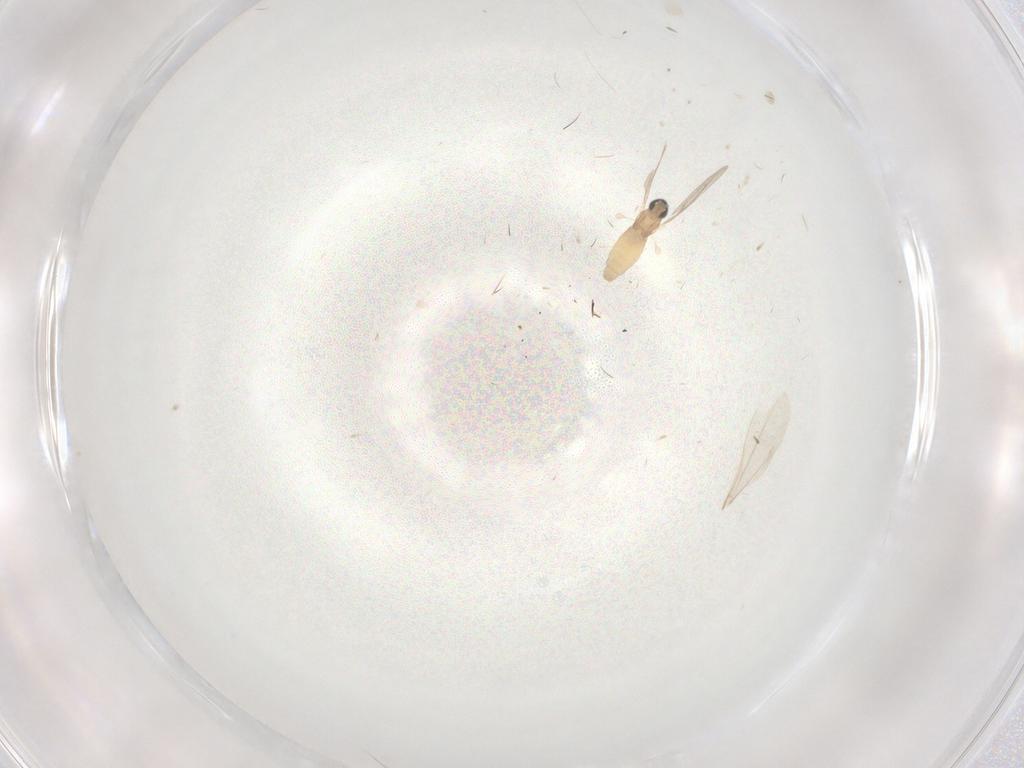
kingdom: Animalia
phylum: Arthropoda
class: Insecta
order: Diptera
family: Cecidomyiidae
